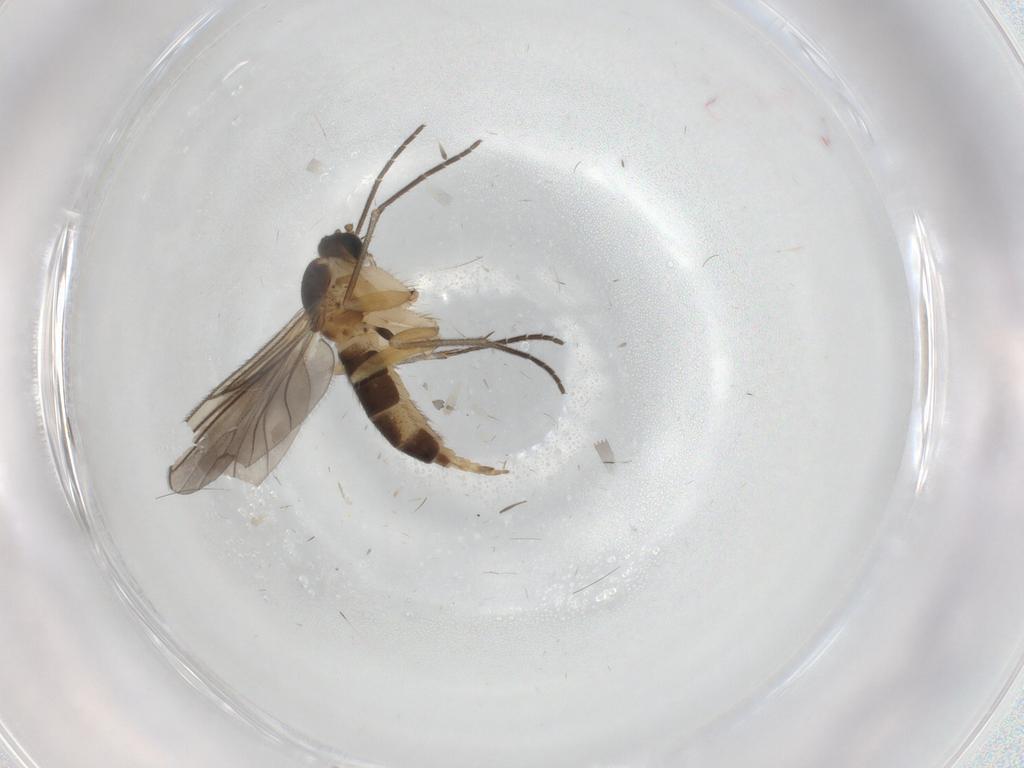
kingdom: Animalia
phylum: Arthropoda
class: Insecta
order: Diptera
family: Sciaridae
